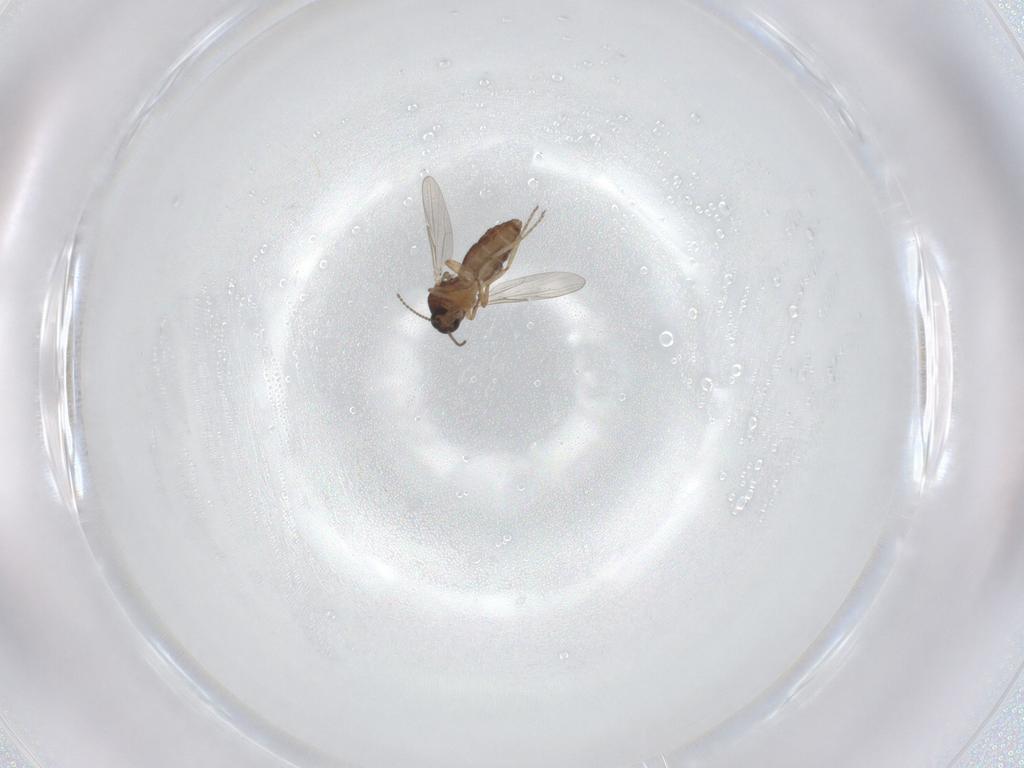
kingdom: Animalia
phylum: Arthropoda
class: Insecta
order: Diptera
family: Ceratopogonidae
